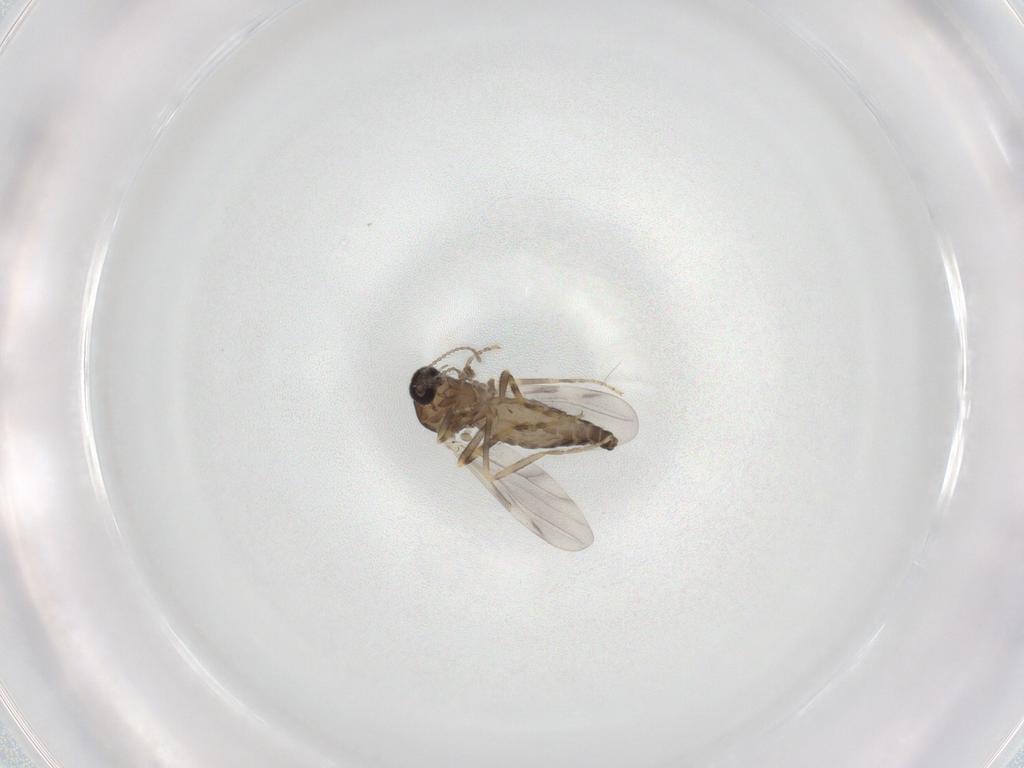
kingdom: Animalia
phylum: Arthropoda
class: Insecta
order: Diptera
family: Ceratopogonidae
